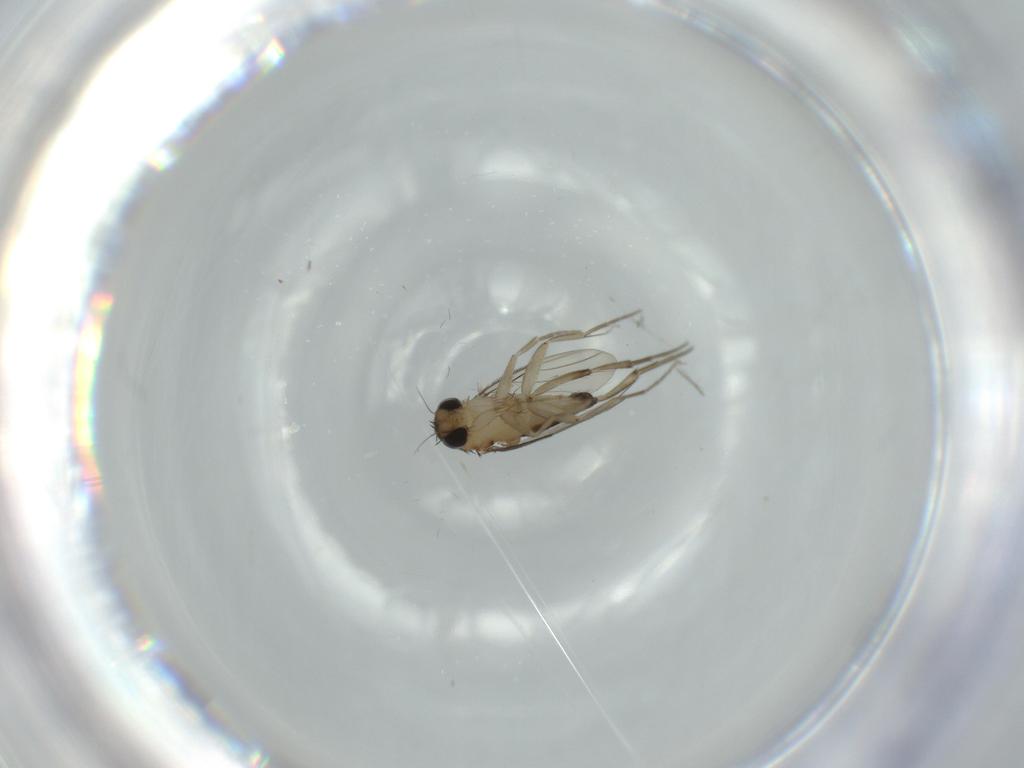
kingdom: Animalia
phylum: Arthropoda
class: Insecta
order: Diptera
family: Phoridae
